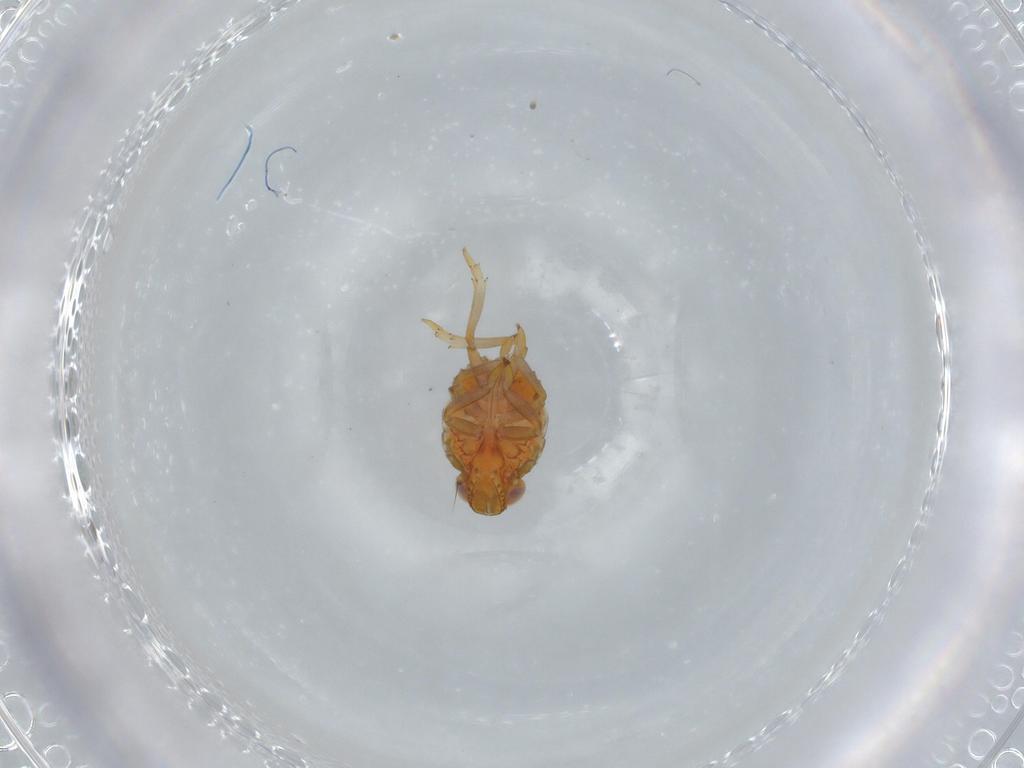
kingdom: Animalia
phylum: Arthropoda
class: Insecta
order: Hemiptera
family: Issidae
